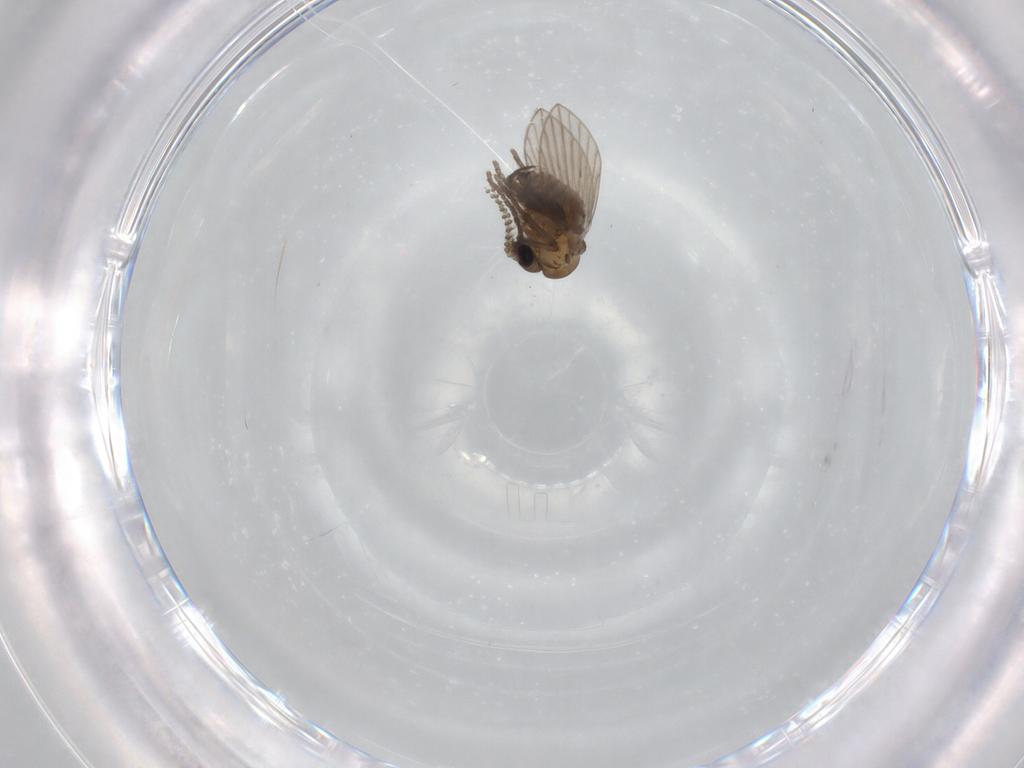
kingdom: Animalia
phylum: Arthropoda
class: Insecta
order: Diptera
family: Psychodidae
